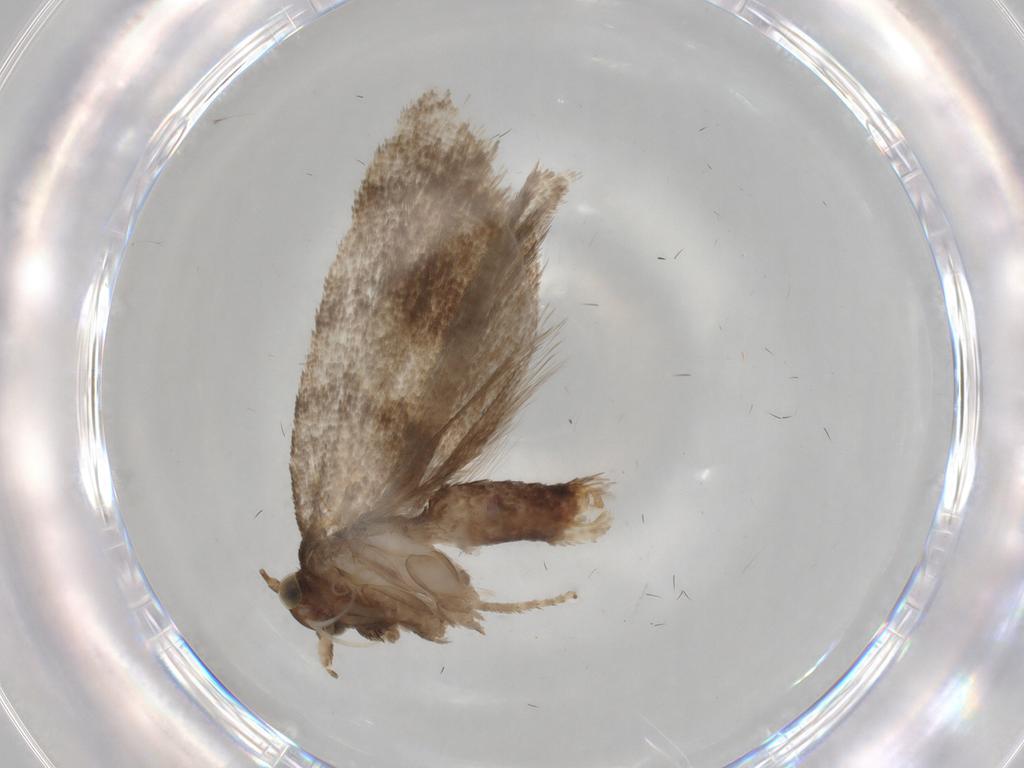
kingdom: Animalia
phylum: Arthropoda
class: Insecta
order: Lepidoptera
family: Tortricidae
